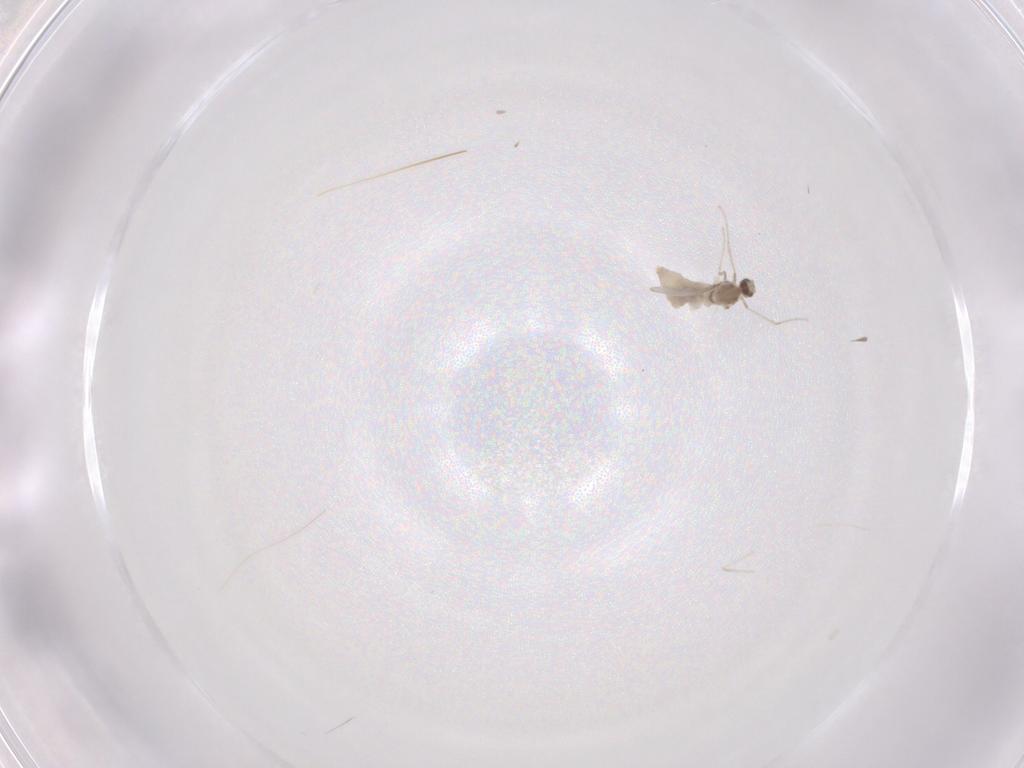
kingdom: Animalia
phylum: Arthropoda
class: Insecta
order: Diptera
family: Cecidomyiidae
